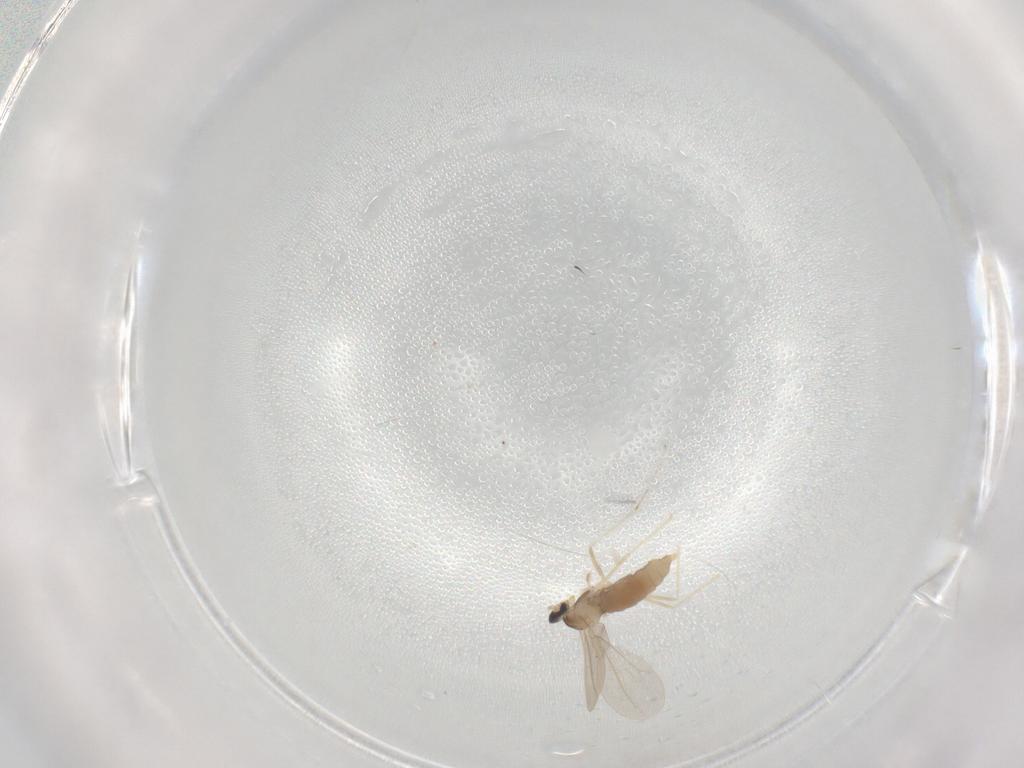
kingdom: Animalia
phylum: Arthropoda
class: Insecta
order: Diptera
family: Cecidomyiidae
